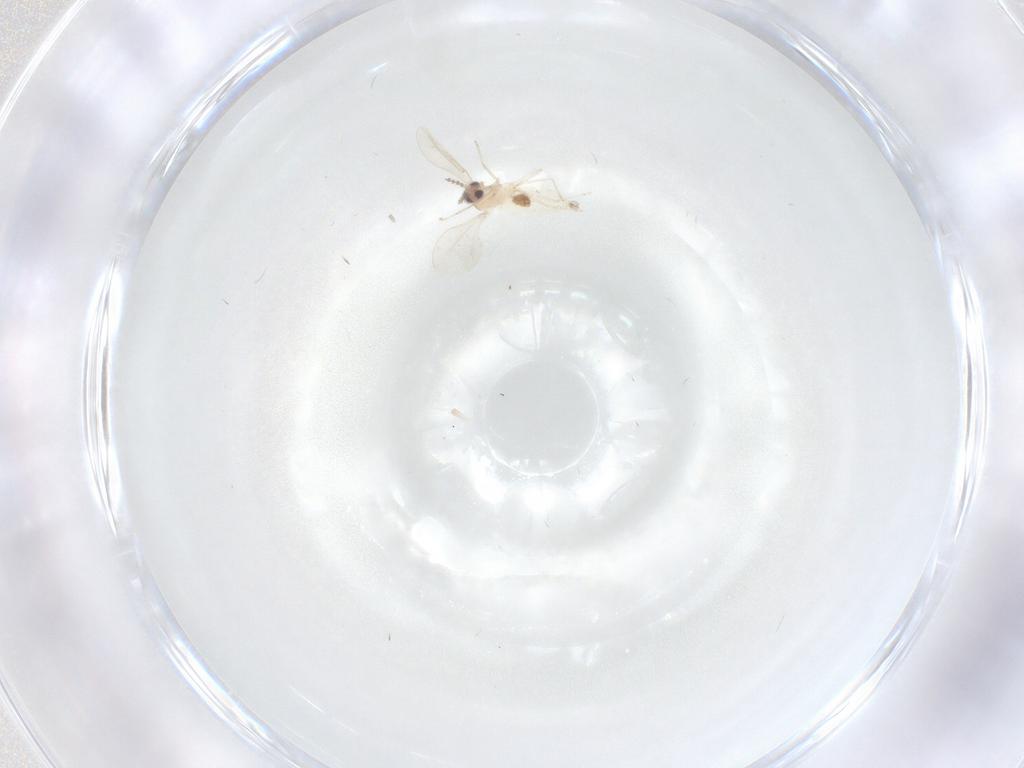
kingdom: Animalia
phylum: Arthropoda
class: Insecta
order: Diptera
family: Cecidomyiidae
